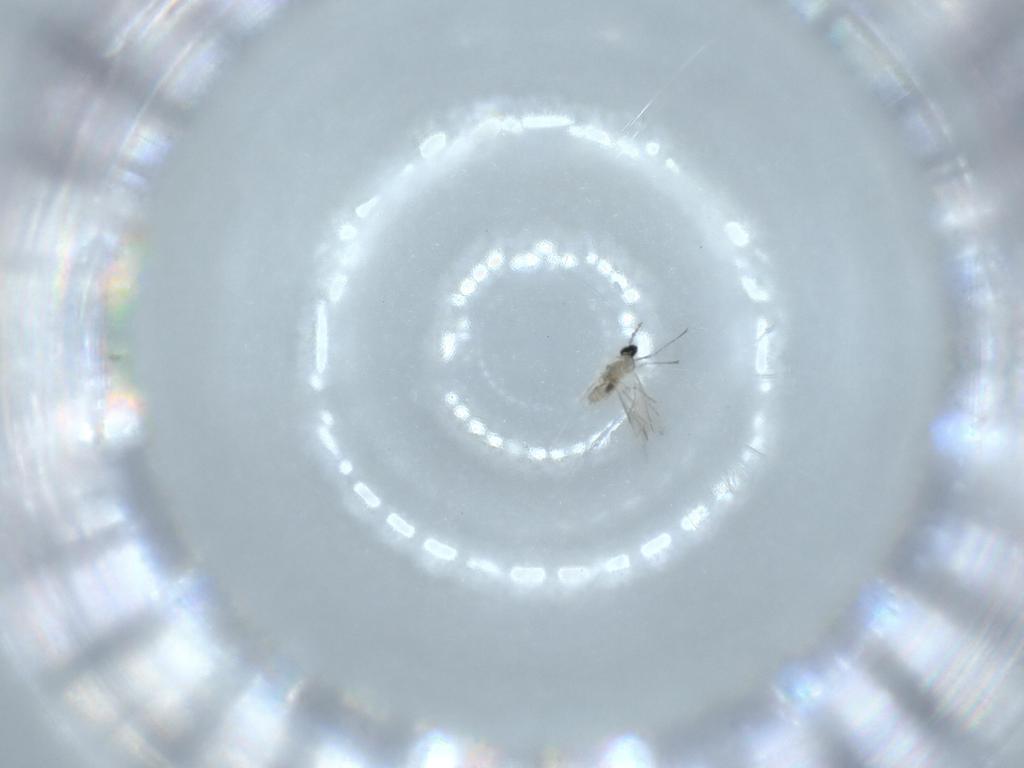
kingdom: Animalia
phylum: Arthropoda
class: Insecta
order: Diptera
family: Cecidomyiidae
